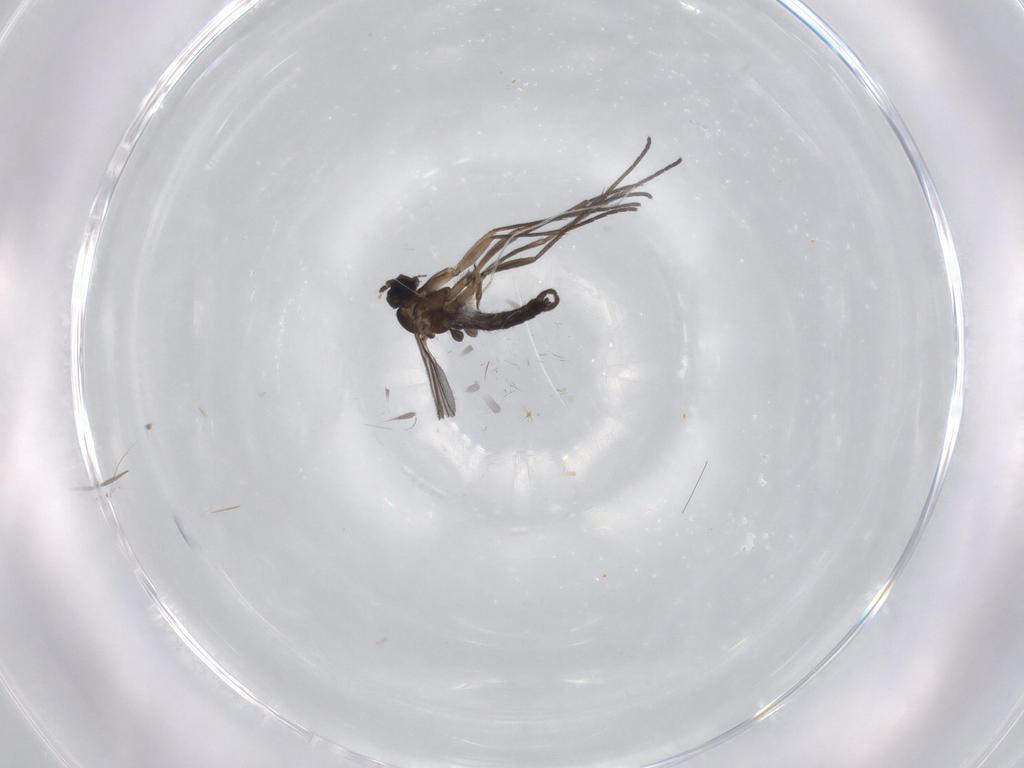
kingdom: Animalia
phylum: Arthropoda
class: Insecta
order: Diptera
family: Sciaridae
